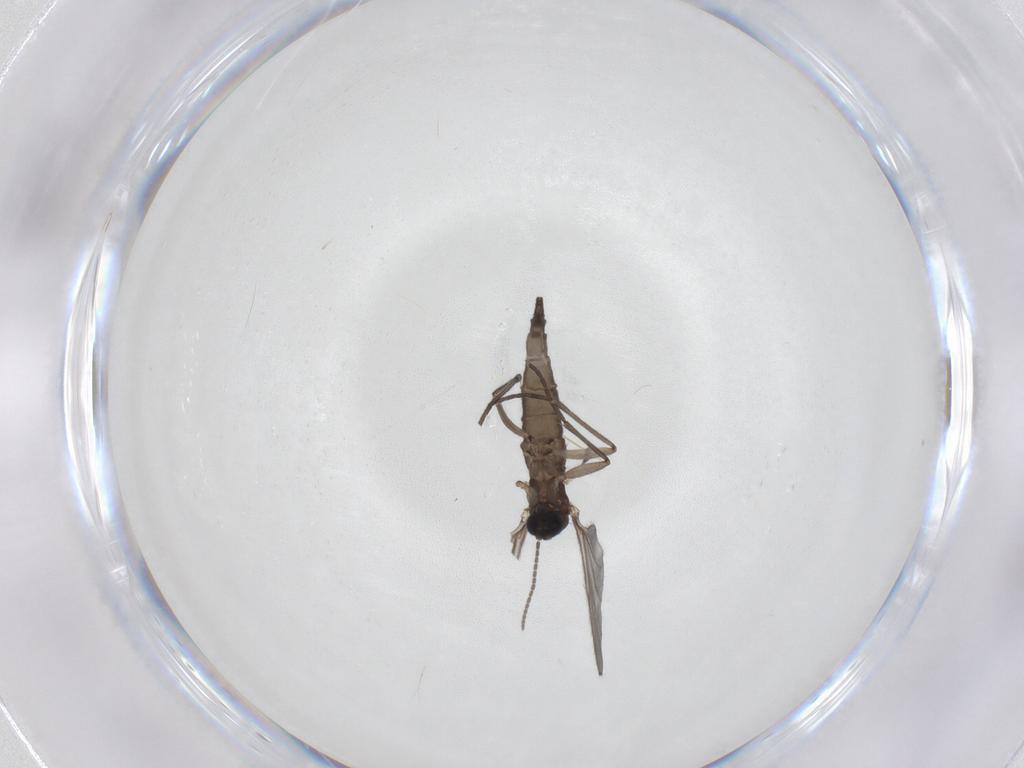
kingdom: Animalia
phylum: Arthropoda
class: Insecta
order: Diptera
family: Sciaridae
